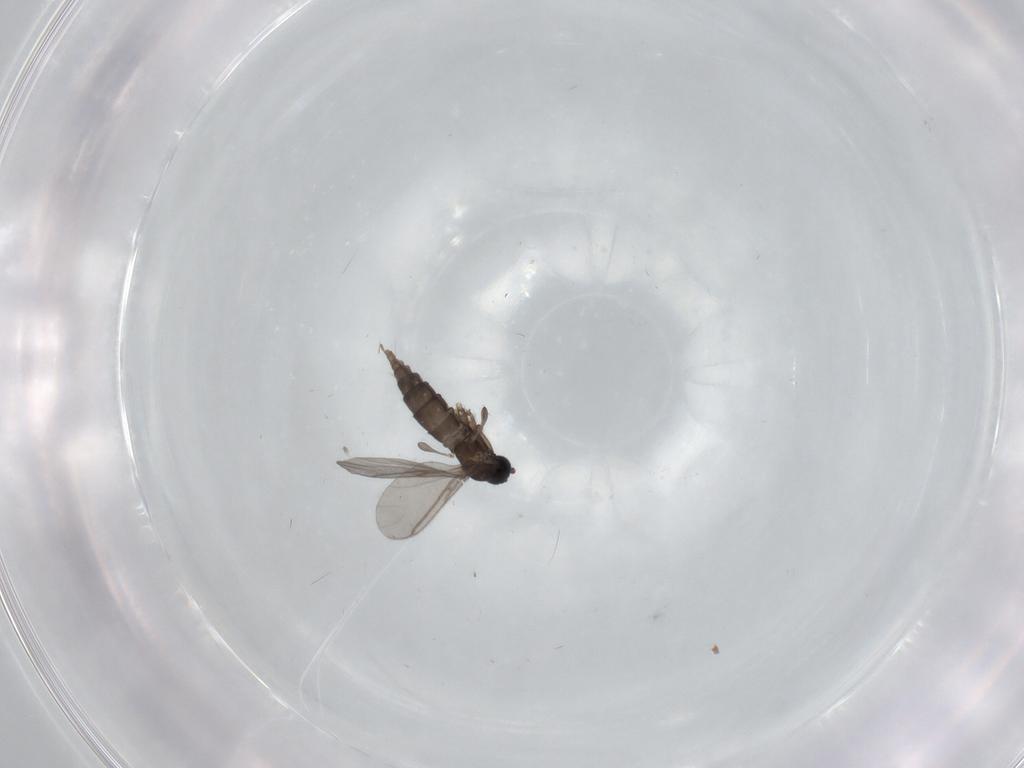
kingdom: Animalia
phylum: Arthropoda
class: Insecta
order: Diptera
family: Sciaridae
